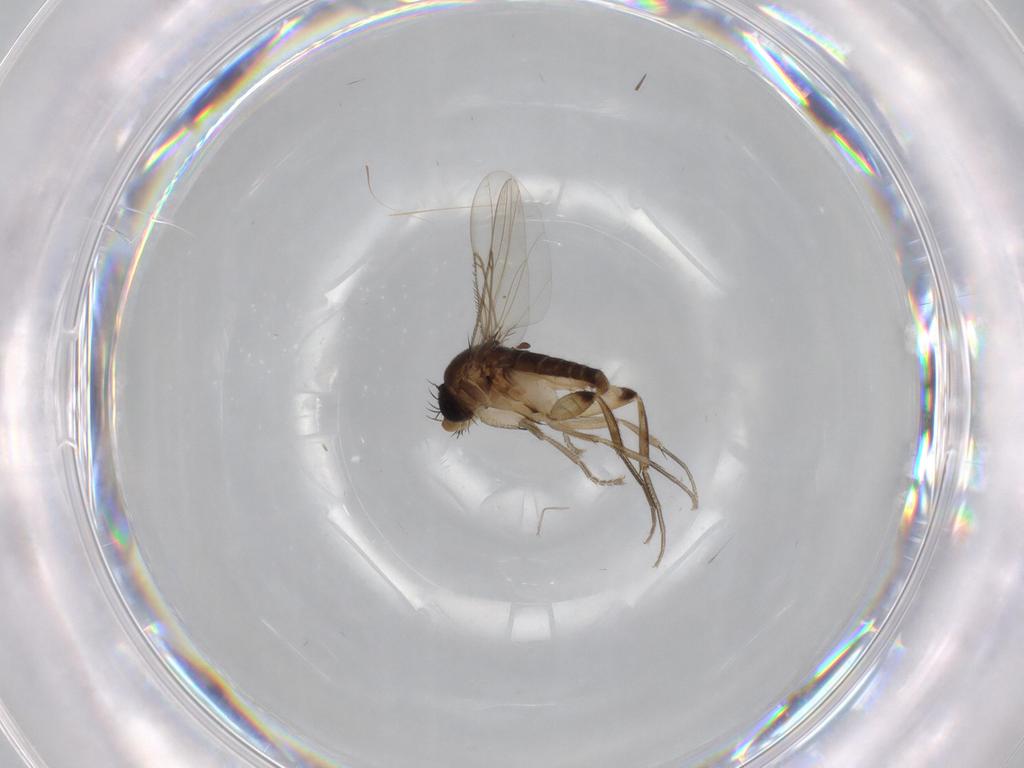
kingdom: Animalia
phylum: Arthropoda
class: Insecta
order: Diptera
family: Phoridae
